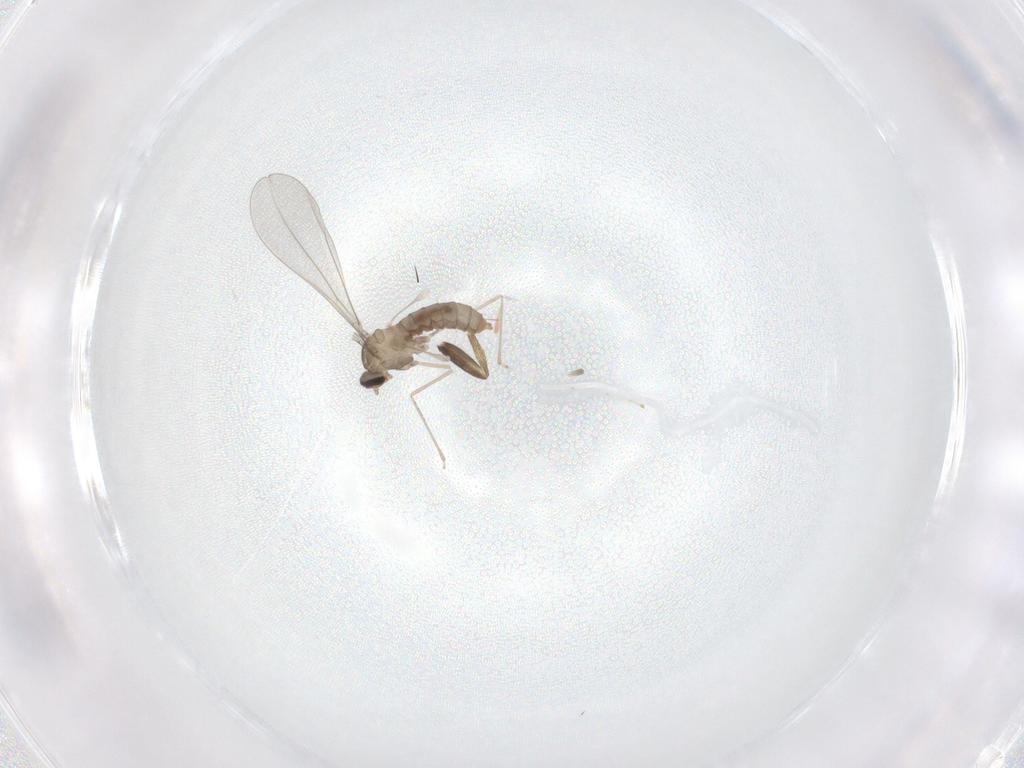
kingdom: Animalia
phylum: Arthropoda
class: Insecta
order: Diptera
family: Cecidomyiidae
